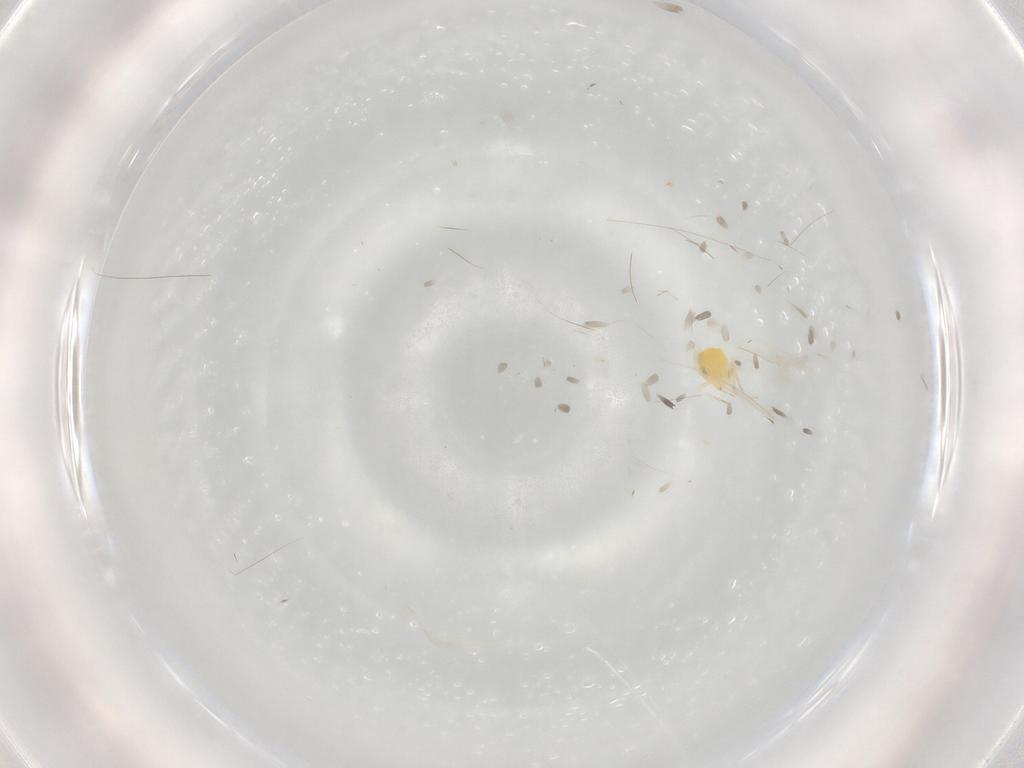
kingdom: Animalia
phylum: Arthropoda
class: Insecta
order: Hemiptera
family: Aleyrodidae
